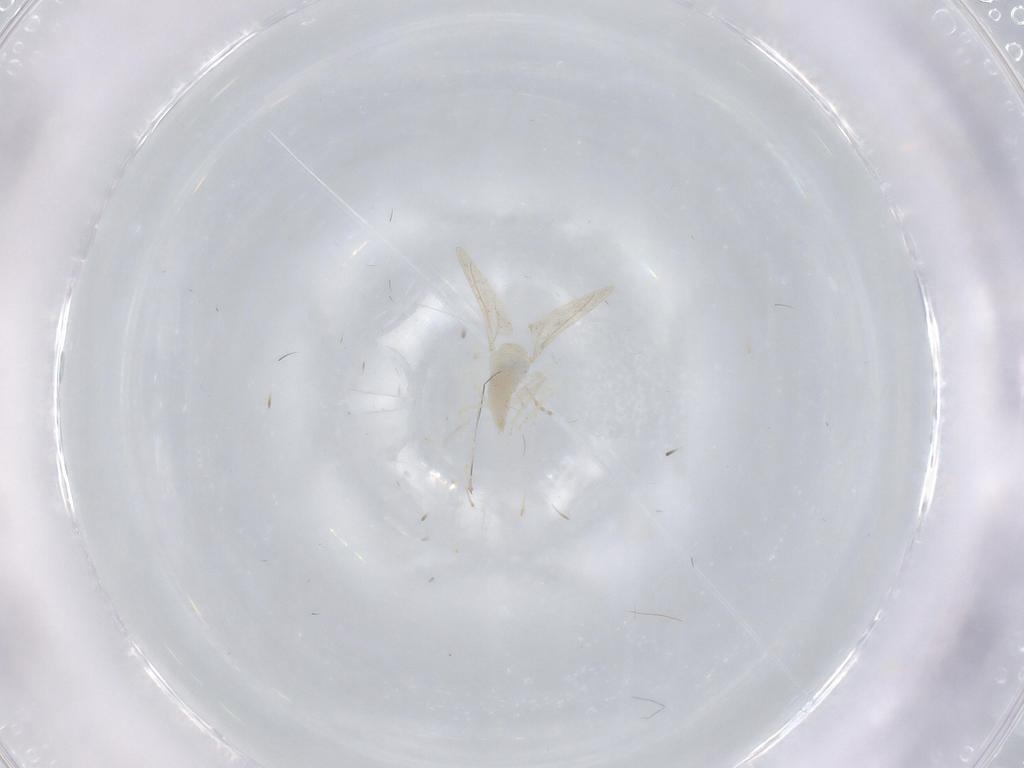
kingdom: Animalia
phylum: Arthropoda
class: Insecta
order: Diptera
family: Cecidomyiidae
